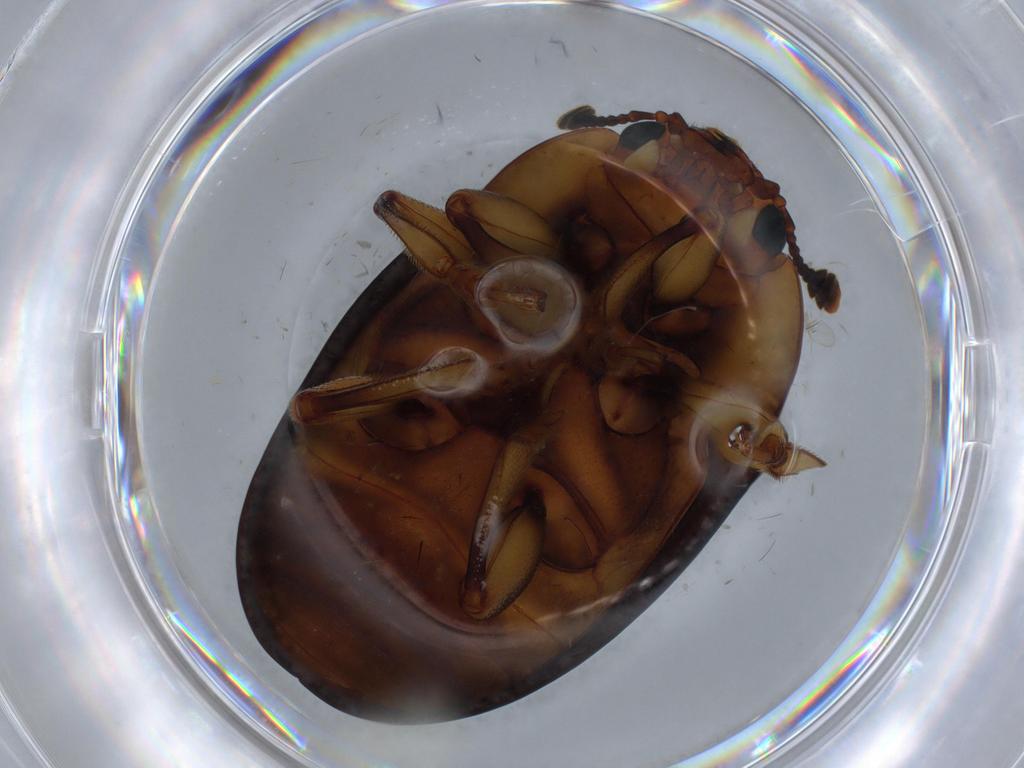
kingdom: Animalia
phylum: Arthropoda
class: Insecta
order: Coleoptera
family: Erotylidae
